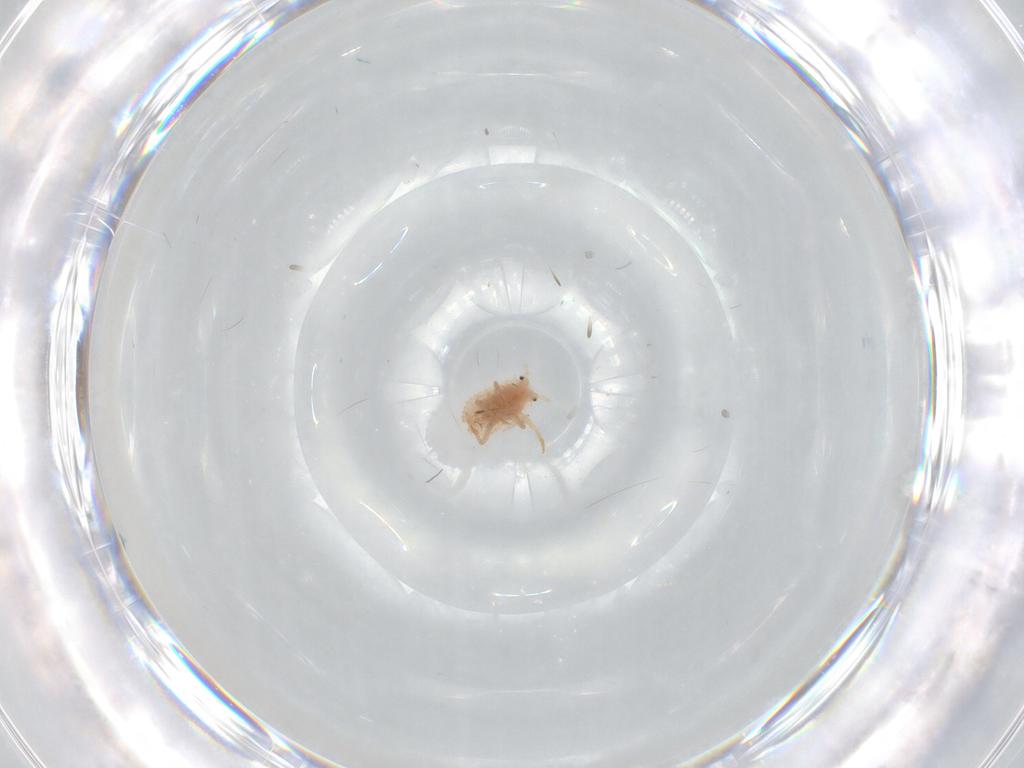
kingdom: Animalia
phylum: Arthropoda
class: Insecta
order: Hemiptera
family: Coccoidea_incertae_sedis
